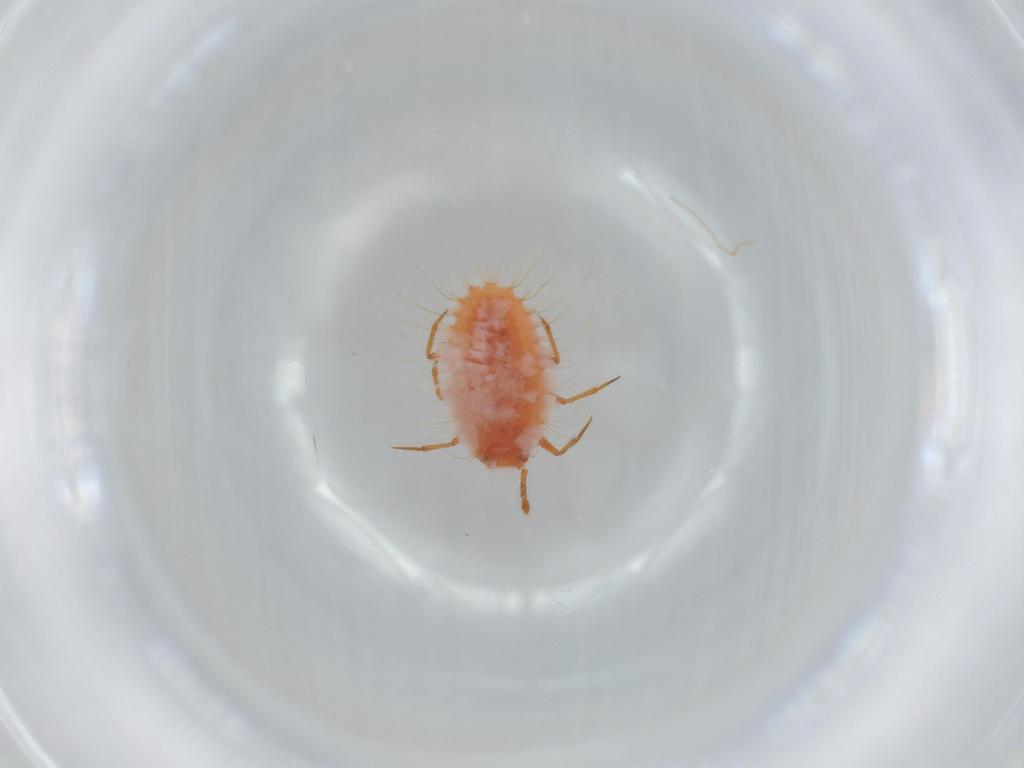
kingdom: Animalia
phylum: Arthropoda
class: Insecta
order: Hemiptera
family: Coccoidea_incertae_sedis
